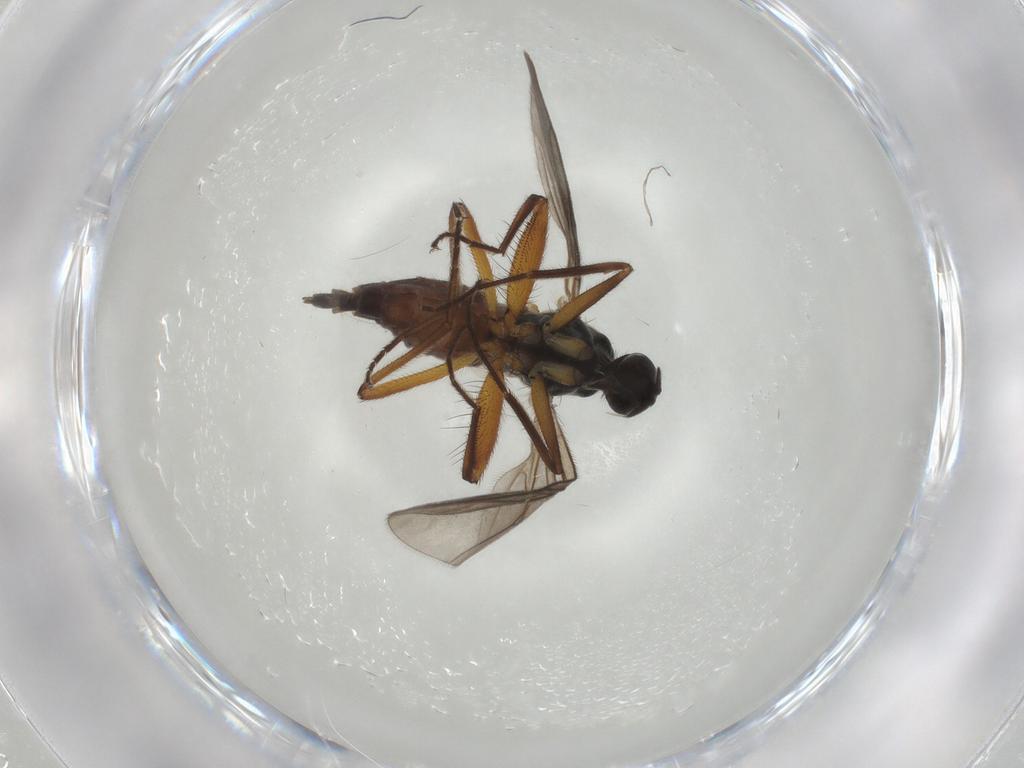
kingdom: Animalia
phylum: Arthropoda
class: Insecta
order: Diptera
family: Hybotidae
